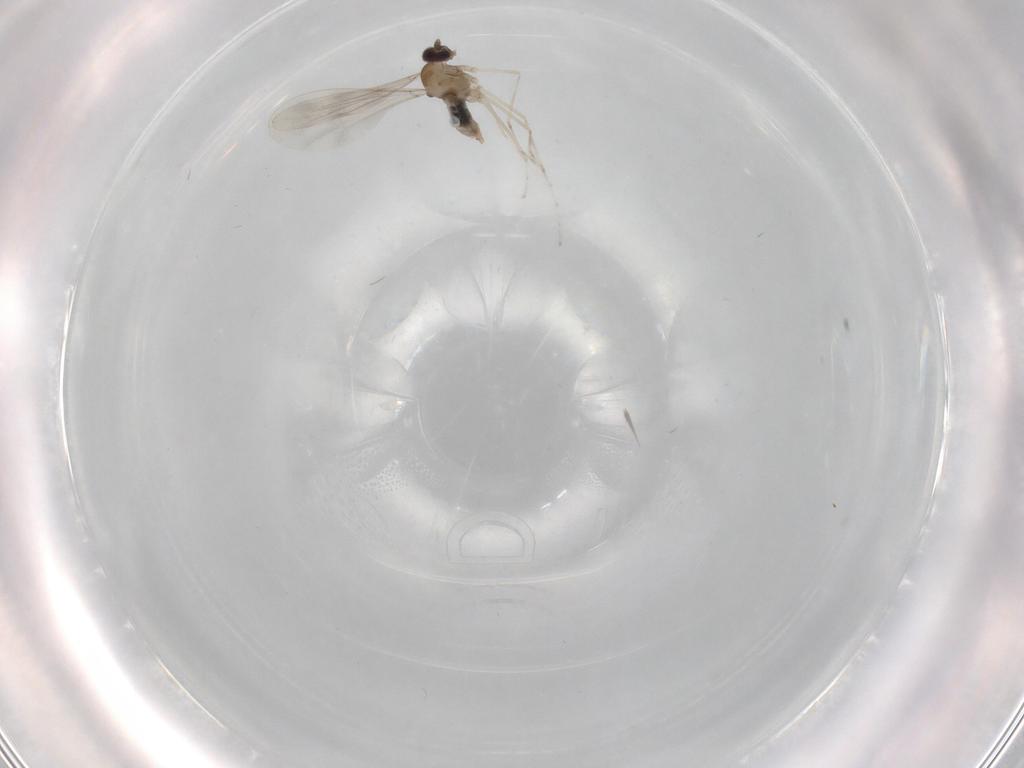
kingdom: Animalia
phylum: Arthropoda
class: Insecta
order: Diptera
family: Cecidomyiidae
